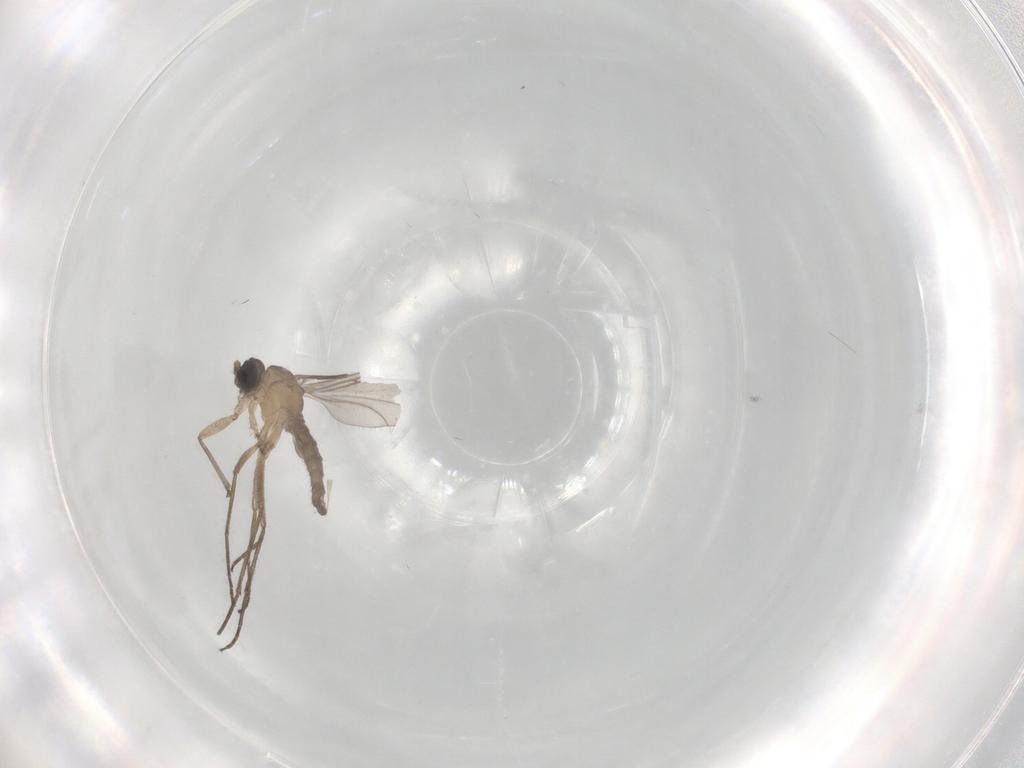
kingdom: Animalia
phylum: Arthropoda
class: Insecta
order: Diptera
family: Sciaridae
